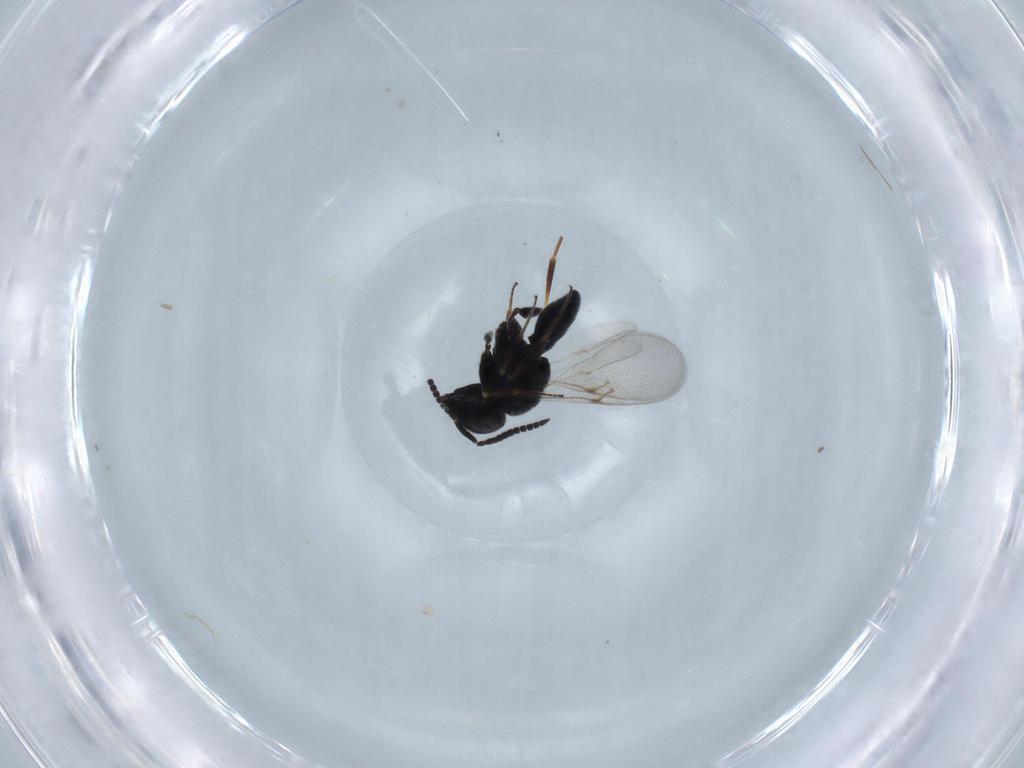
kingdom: Animalia
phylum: Arthropoda
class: Insecta
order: Hymenoptera
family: Scelionidae
